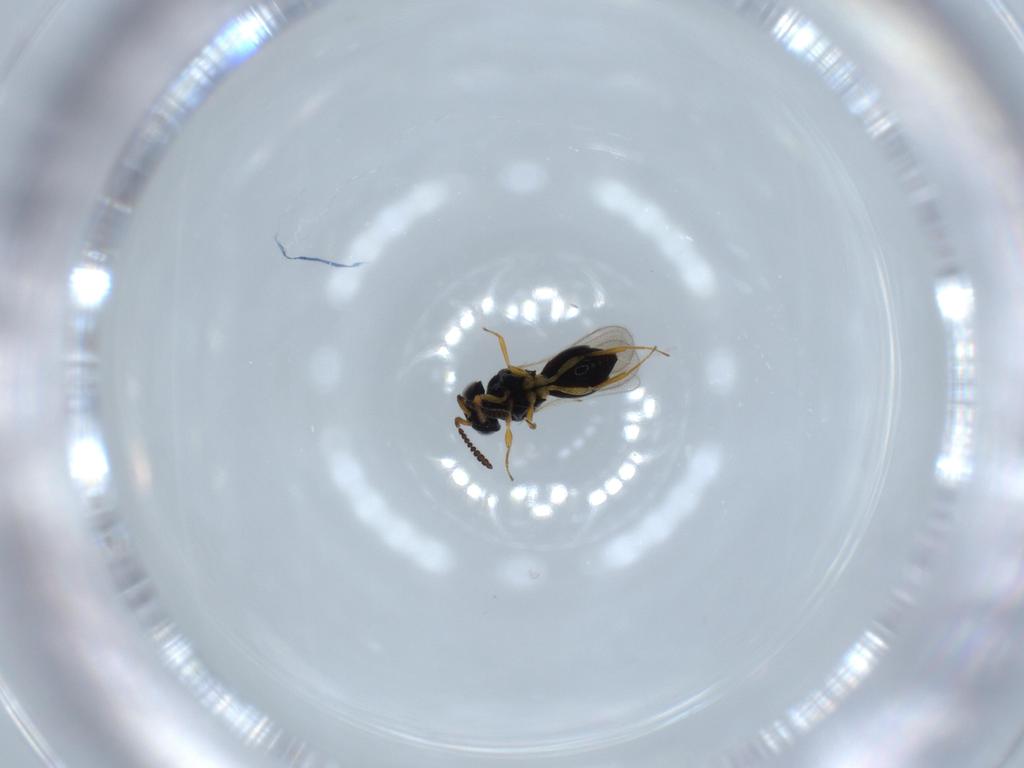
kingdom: Animalia
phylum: Arthropoda
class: Insecta
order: Hymenoptera
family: Scelionidae
